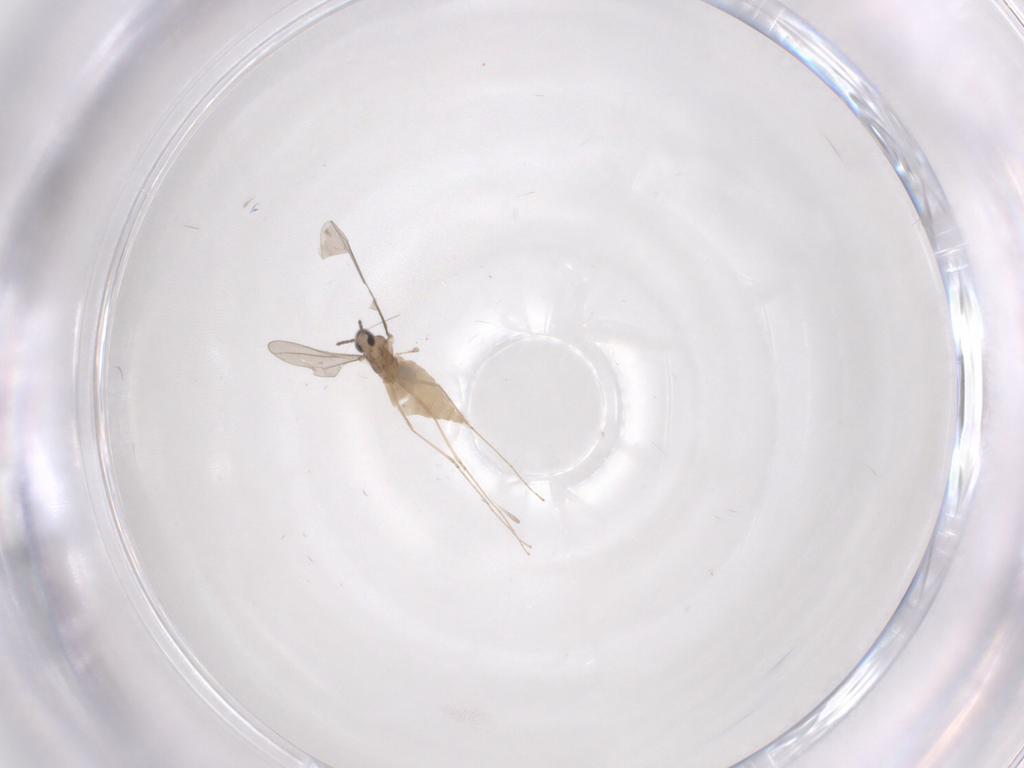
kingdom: Animalia
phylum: Arthropoda
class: Insecta
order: Diptera
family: Cecidomyiidae
